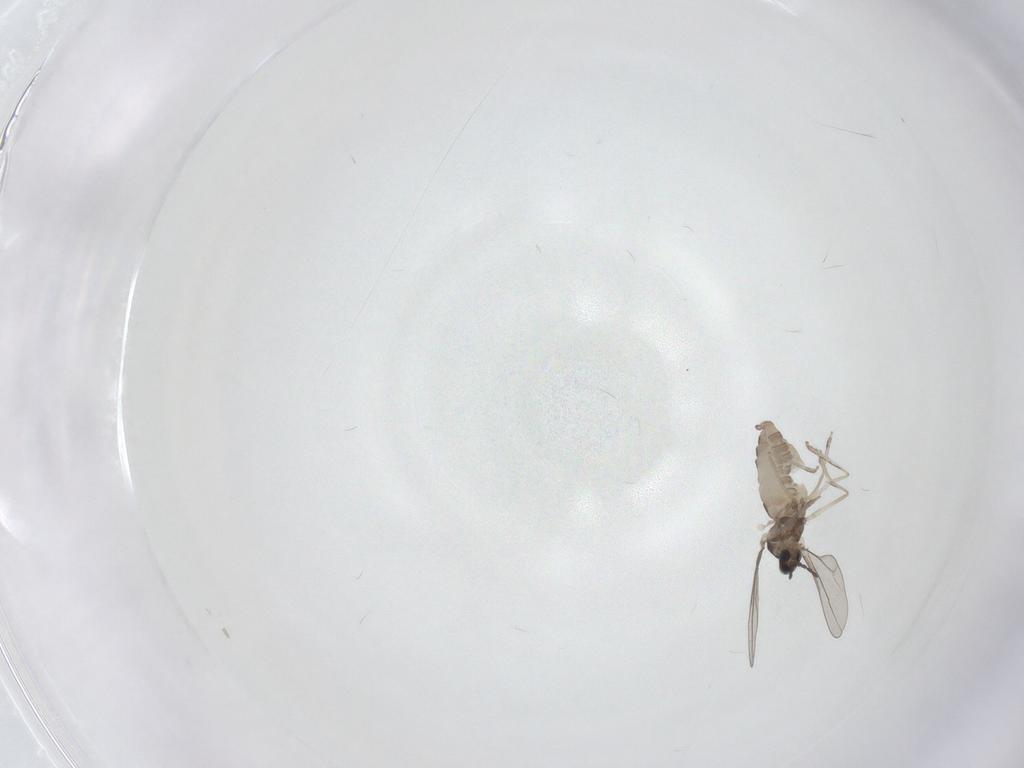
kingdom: Animalia
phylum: Arthropoda
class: Insecta
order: Diptera
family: Cecidomyiidae
